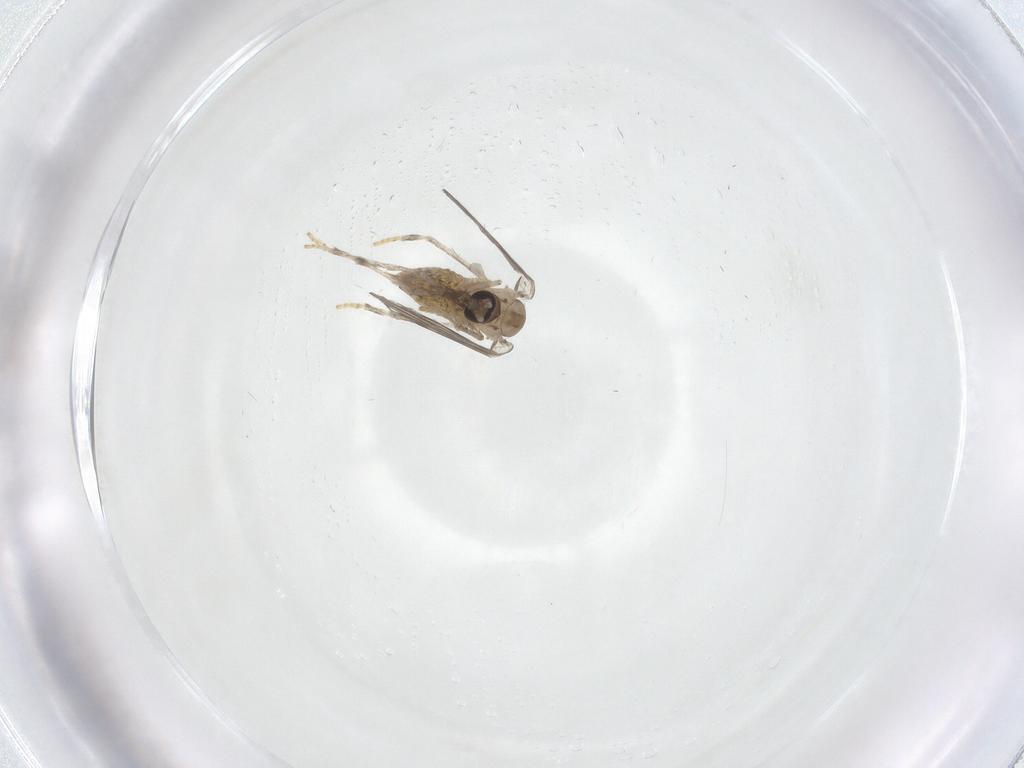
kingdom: Animalia
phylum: Arthropoda
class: Insecta
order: Diptera
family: Psychodidae
